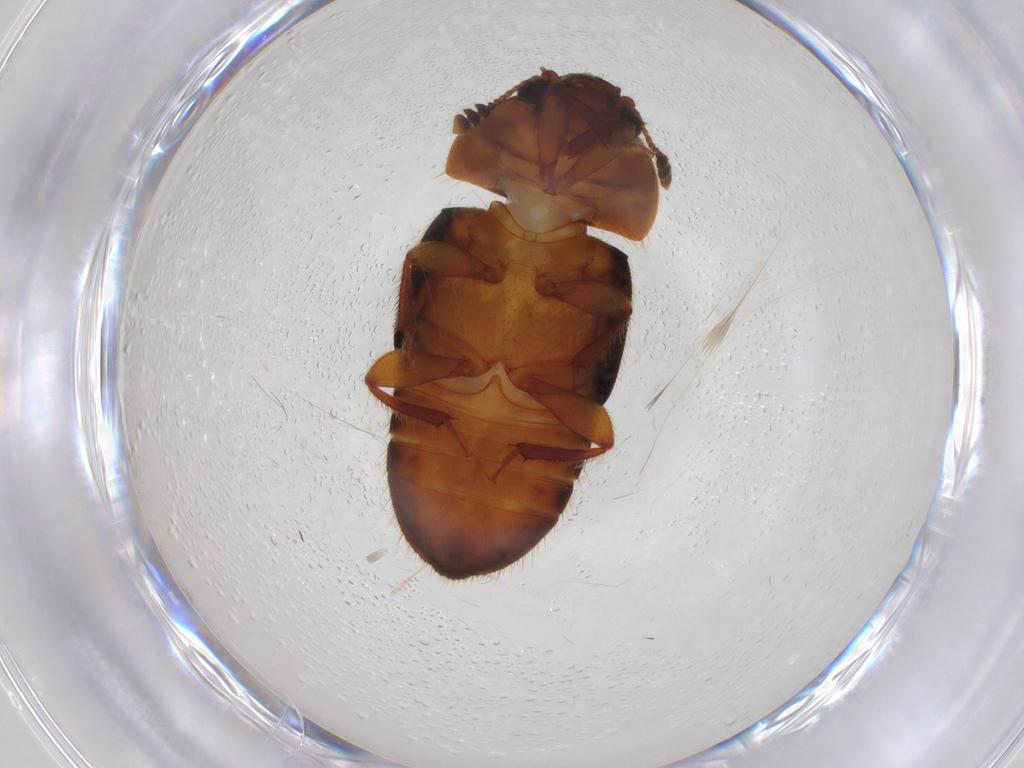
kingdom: Animalia
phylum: Arthropoda
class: Insecta
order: Coleoptera
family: Nitidulidae
